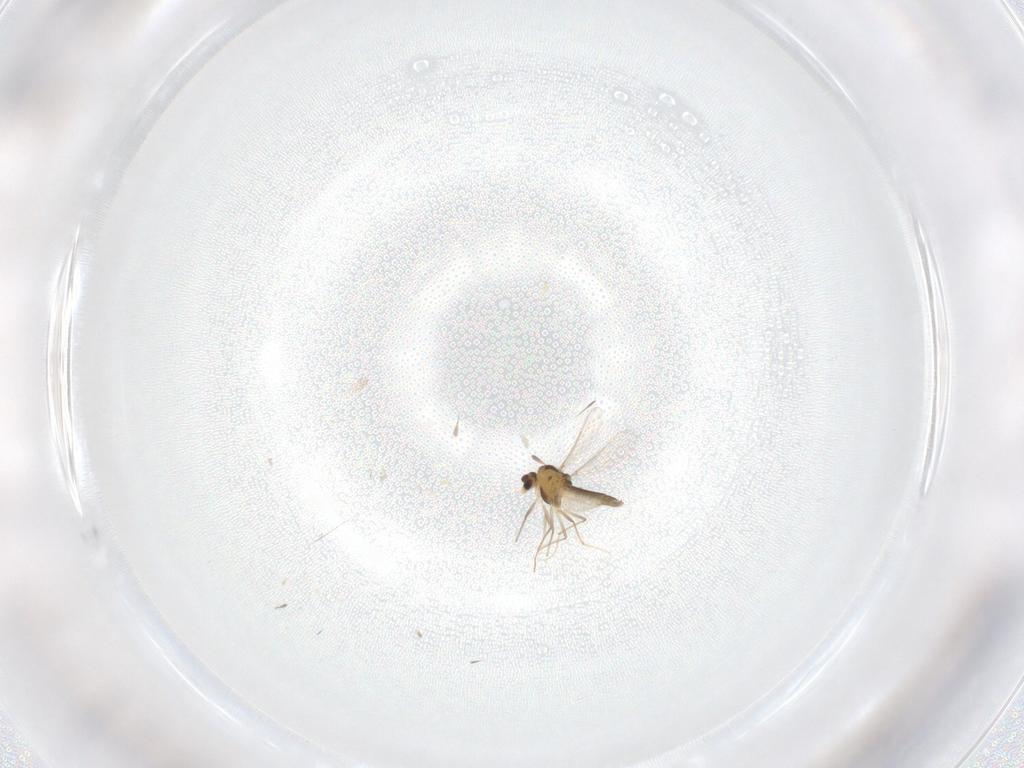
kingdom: Animalia
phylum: Arthropoda
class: Insecta
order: Diptera
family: Chironomidae
